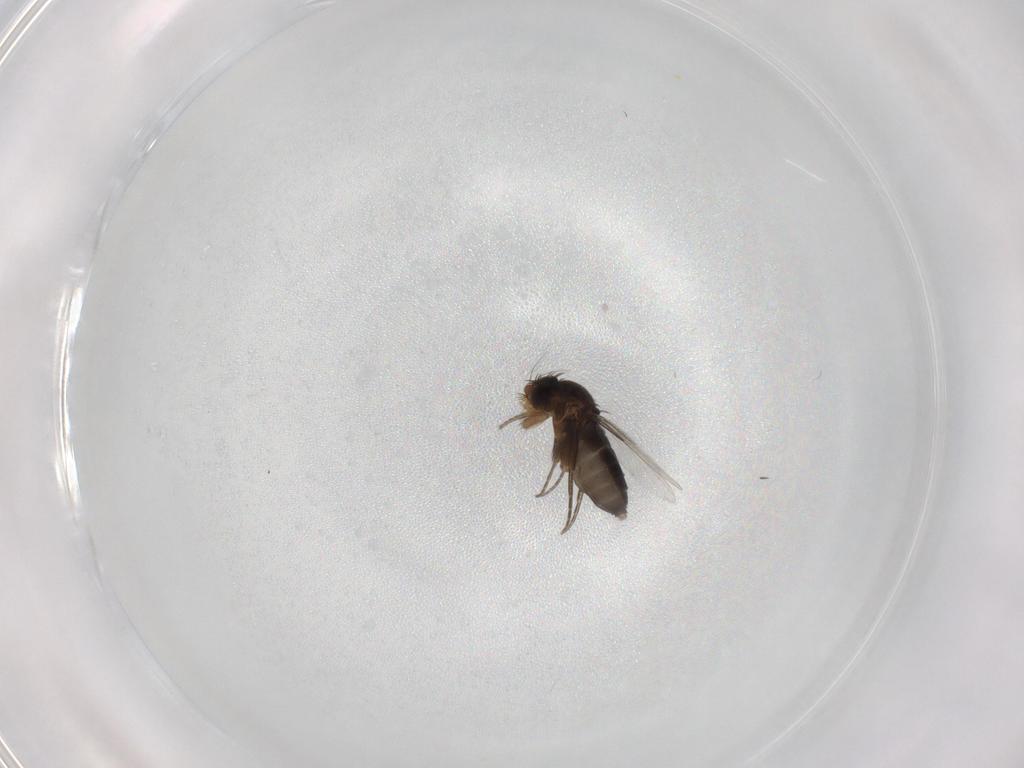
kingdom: Animalia
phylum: Arthropoda
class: Insecta
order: Diptera
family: Phoridae
